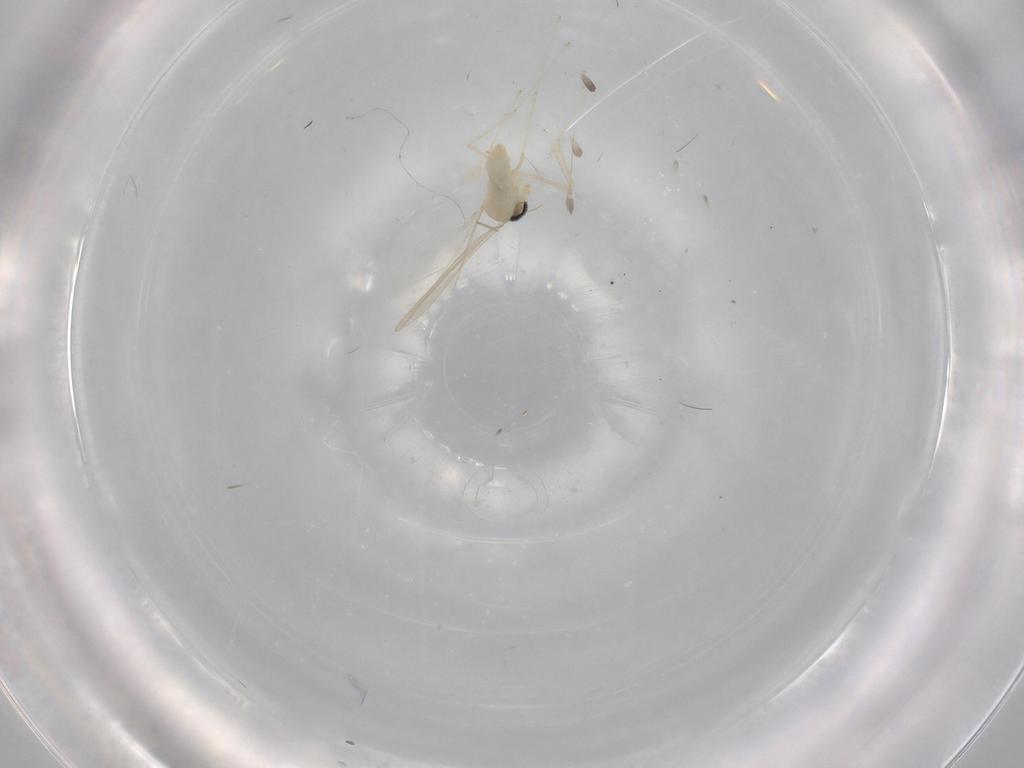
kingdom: Animalia
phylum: Arthropoda
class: Insecta
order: Diptera
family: Cecidomyiidae
